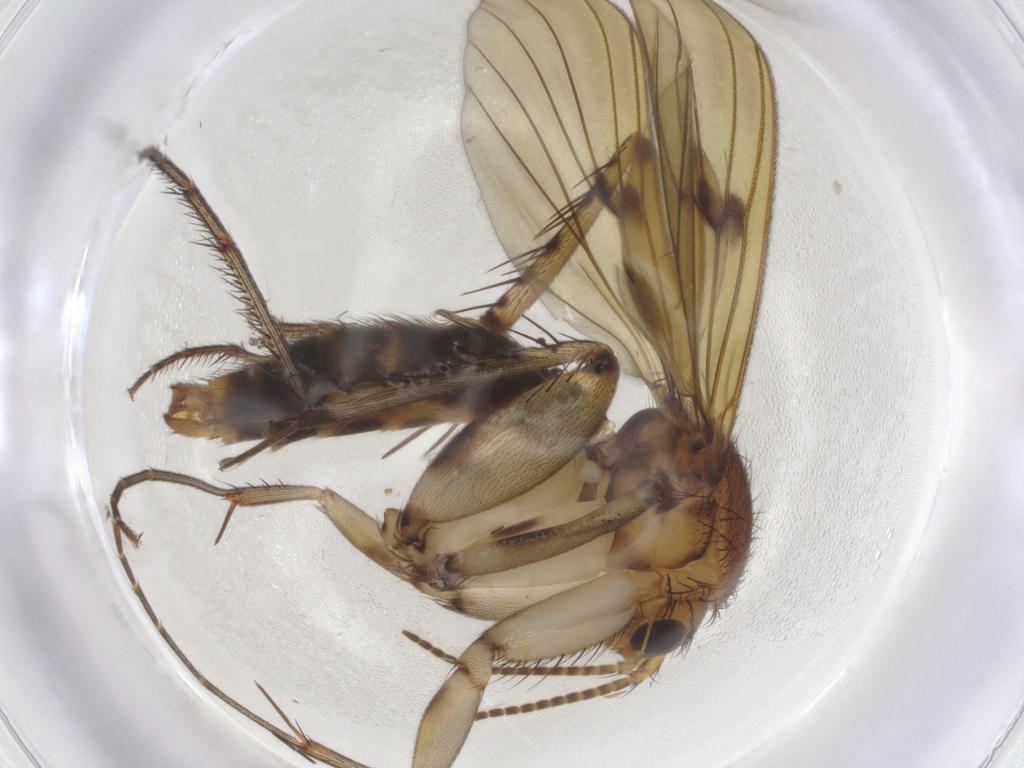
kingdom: Animalia
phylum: Arthropoda
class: Insecta
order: Diptera
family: Sciaridae
